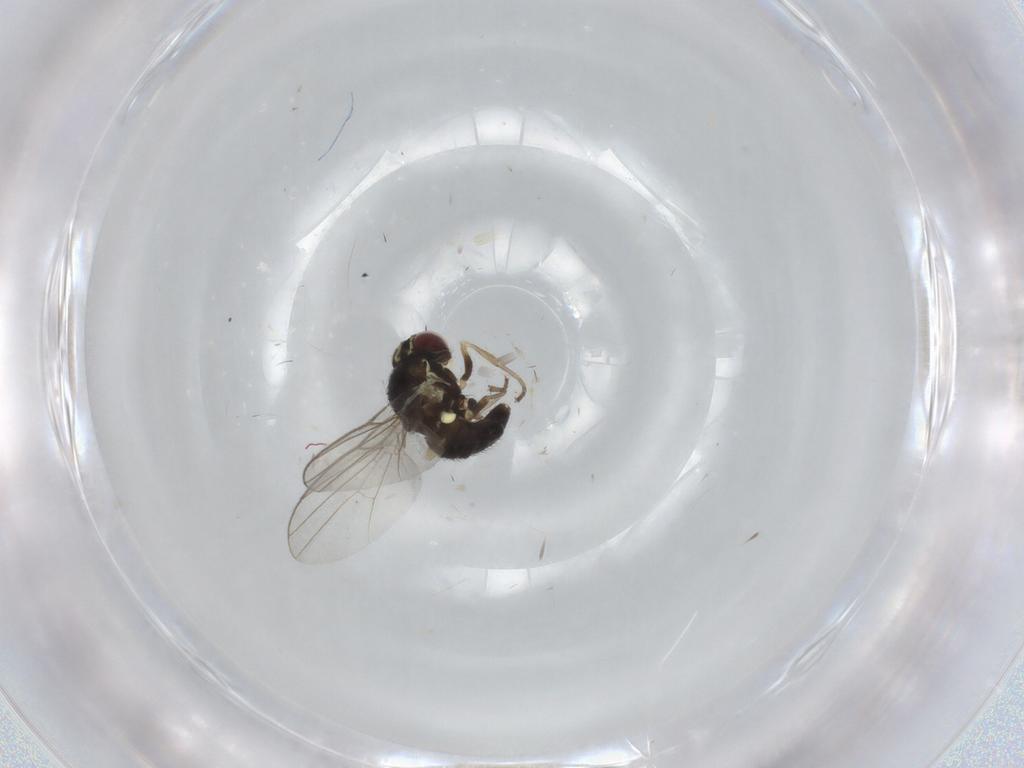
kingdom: Animalia
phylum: Arthropoda
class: Insecta
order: Diptera
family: Agromyzidae
